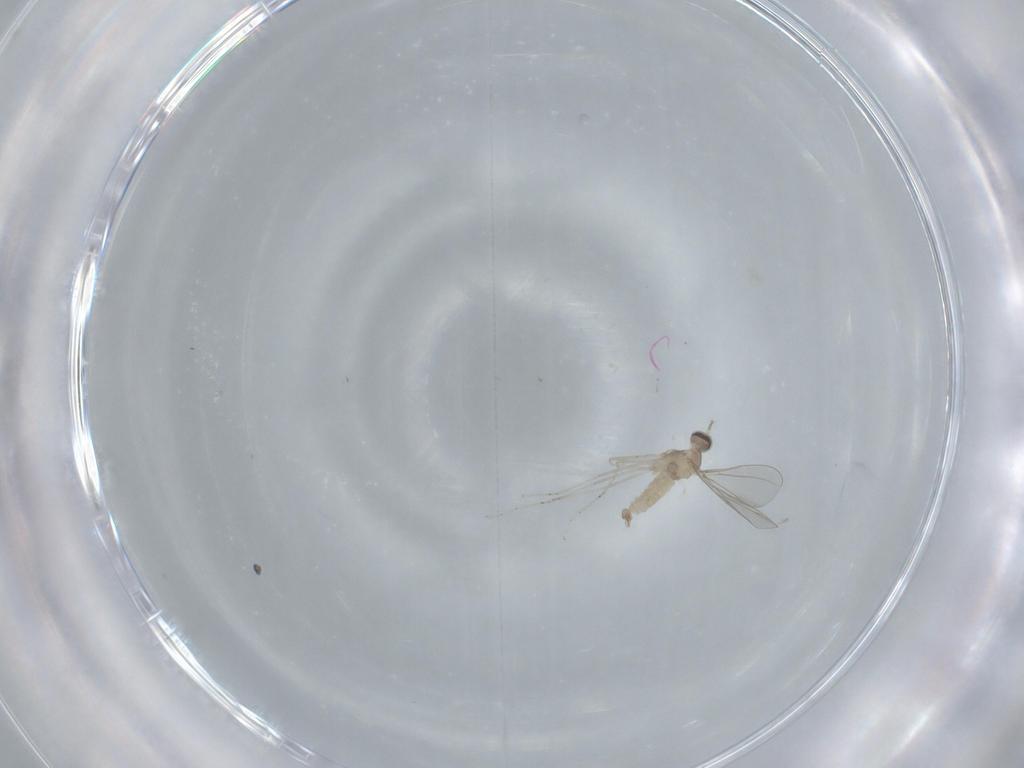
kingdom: Animalia
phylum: Arthropoda
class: Insecta
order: Diptera
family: Cecidomyiidae
